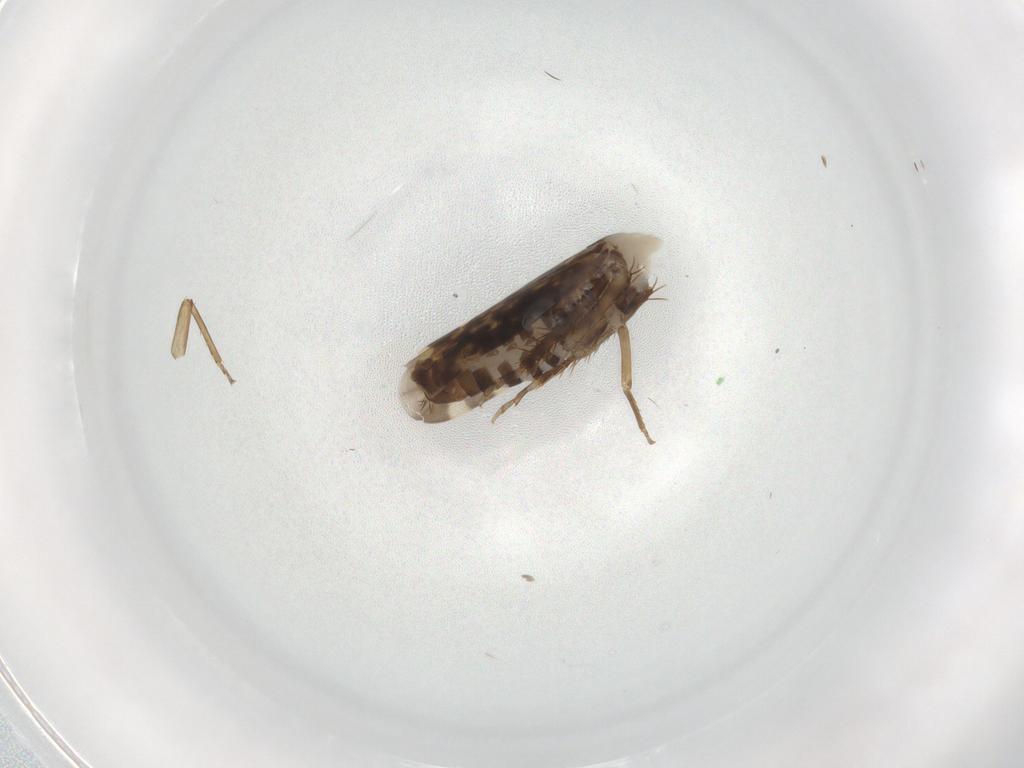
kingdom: Animalia
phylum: Arthropoda
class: Insecta
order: Hemiptera
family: Cicadellidae
